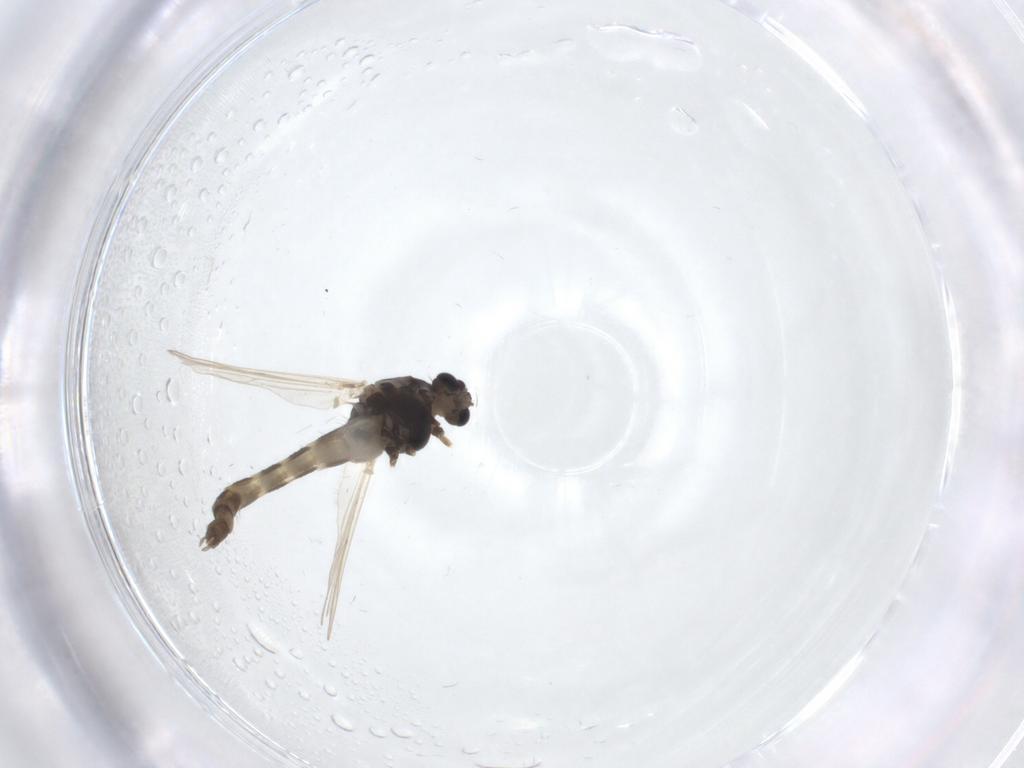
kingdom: Animalia
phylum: Arthropoda
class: Insecta
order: Diptera
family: Chironomidae
